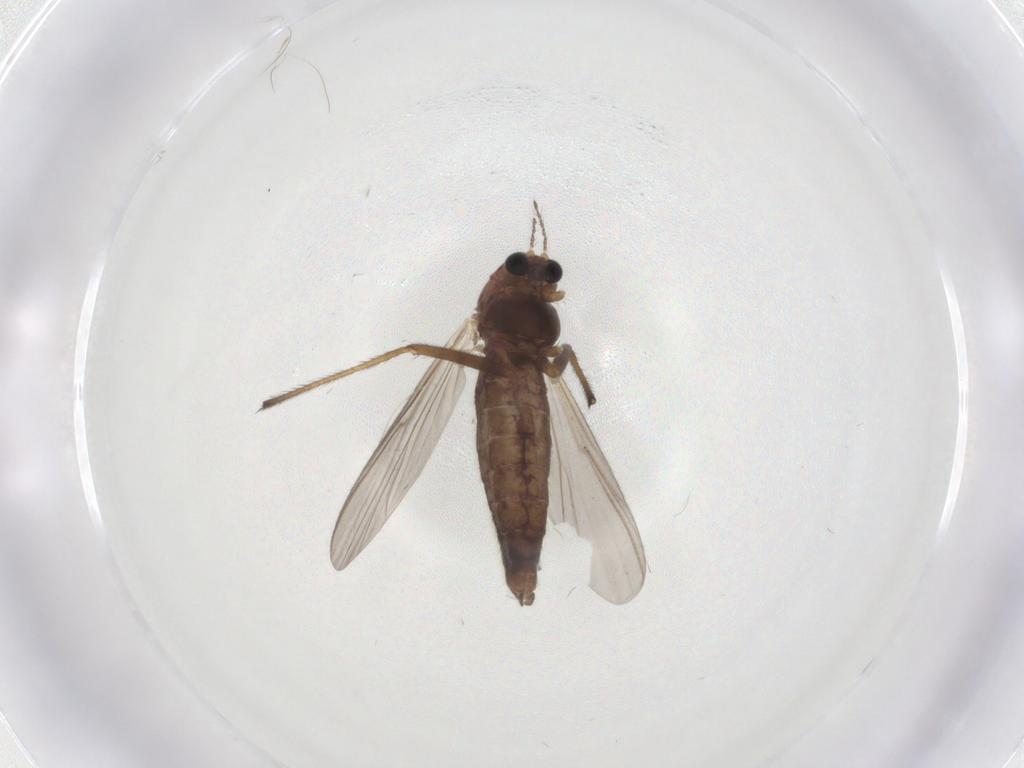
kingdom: Animalia
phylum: Arthropoda
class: Insecta
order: Diptera
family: Chironomidae
